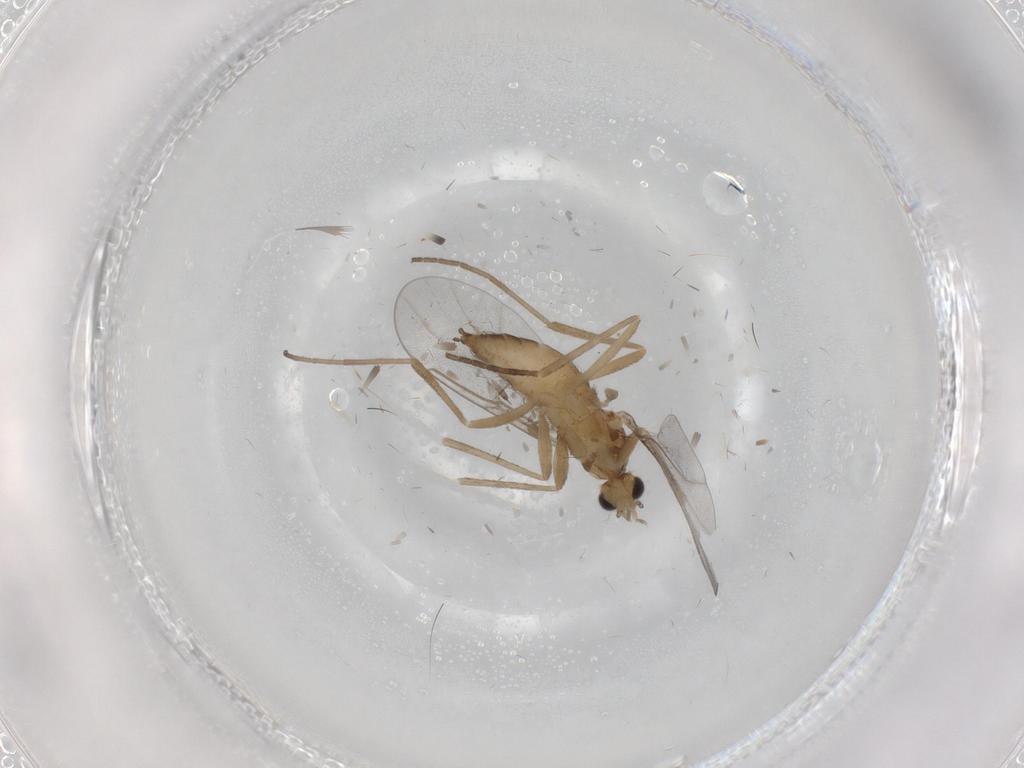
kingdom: Animalia
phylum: Arthropoda
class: Insecta
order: Diptera
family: Cecidomyiidae
